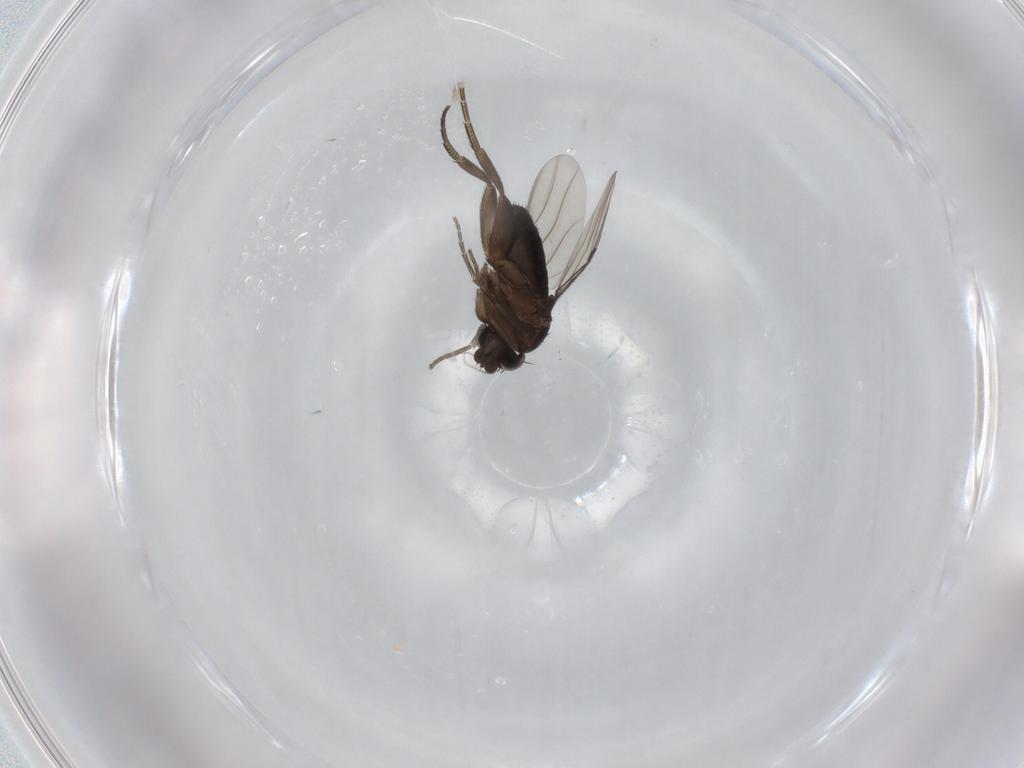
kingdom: Animalia
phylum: Arthropoda
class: Insecta
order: Diptera
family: Phoridae
